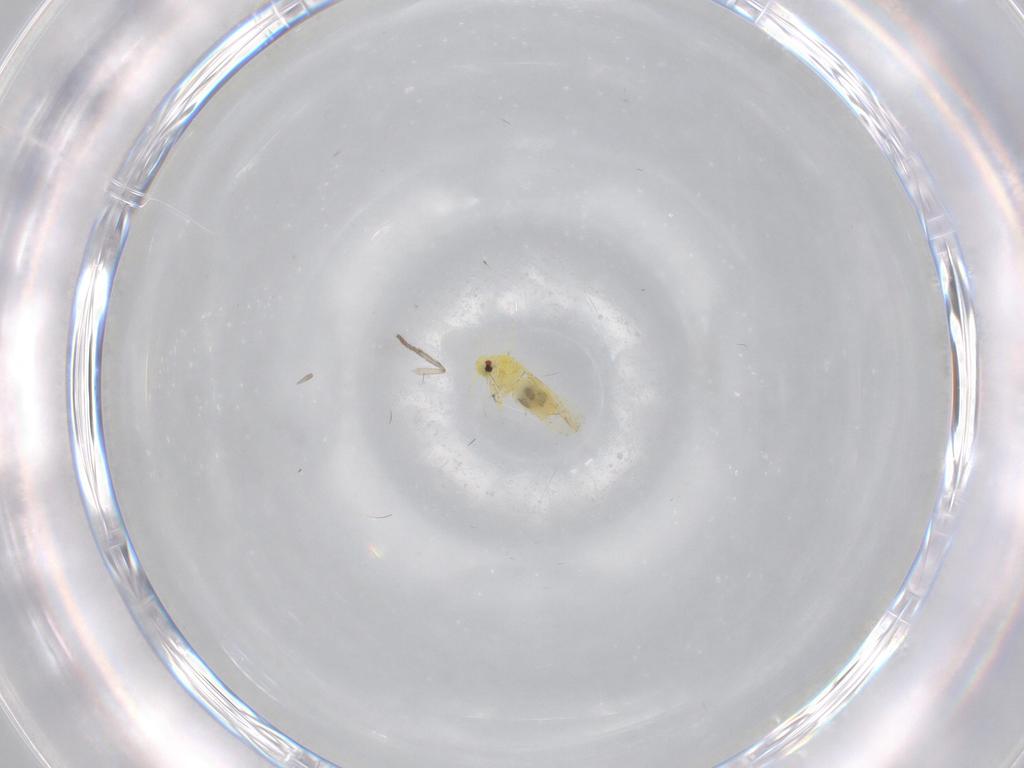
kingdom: Animalia
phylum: Arthropoda
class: Insecta
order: Hemiptera
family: Aleyrodidae
